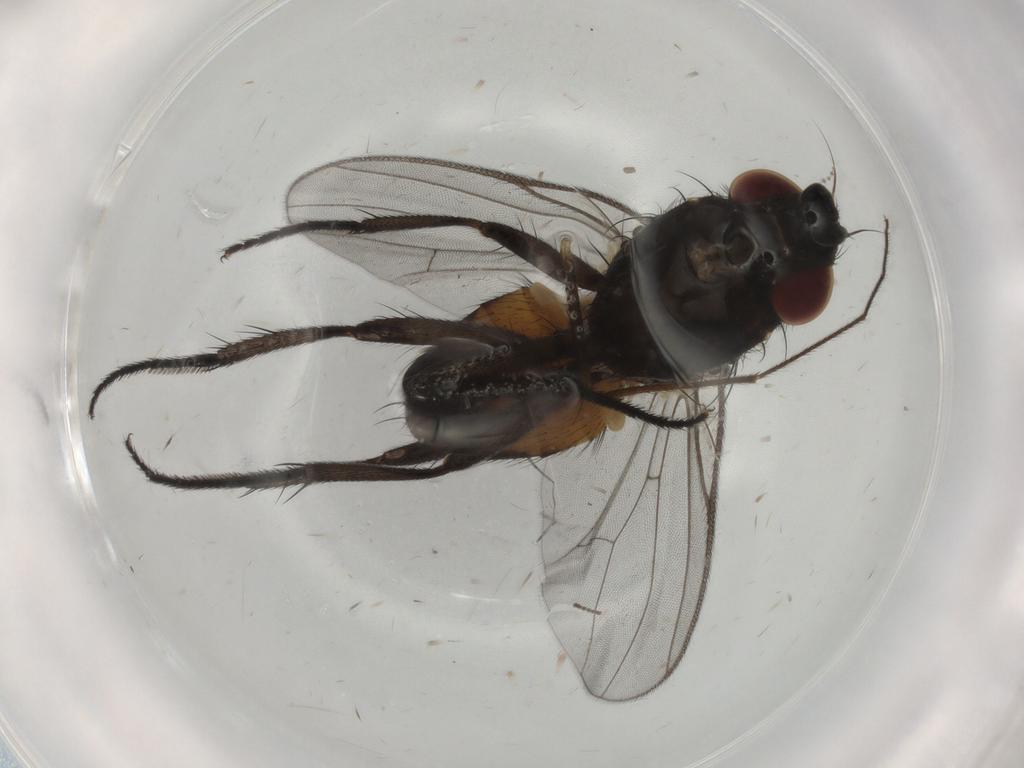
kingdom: Animalia
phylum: Arthropoda
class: Insecta
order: Diptera
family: Fannia
